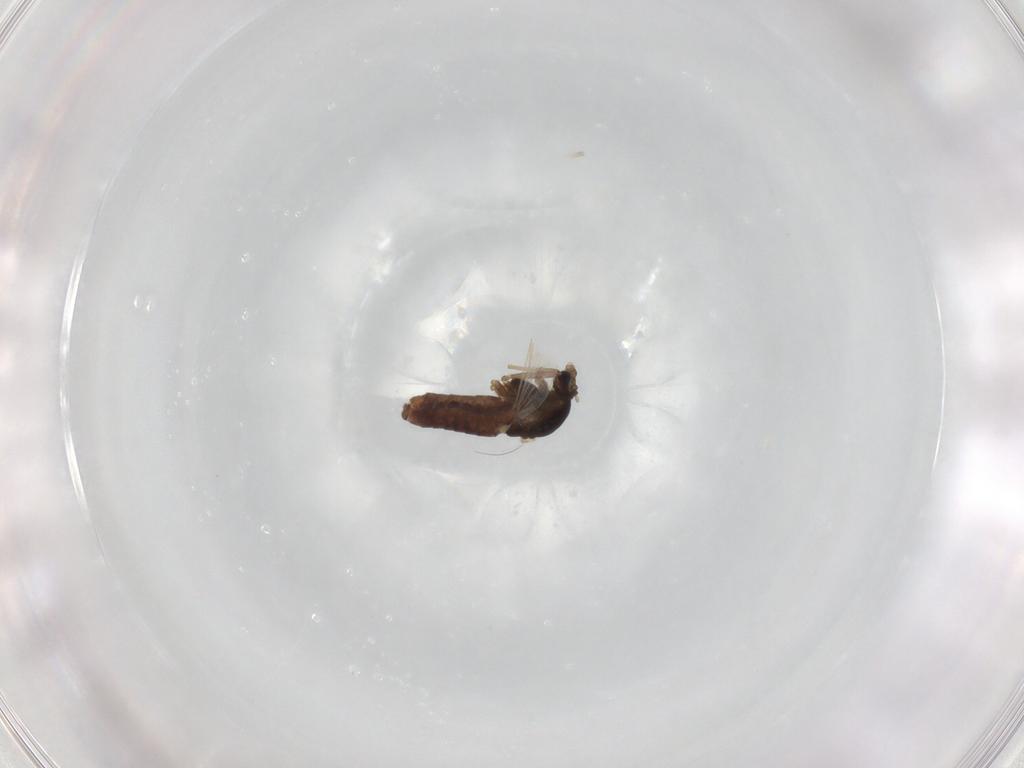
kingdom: Animalia
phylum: Arthropoda
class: Insecta
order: Diptera
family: Chironomidae
